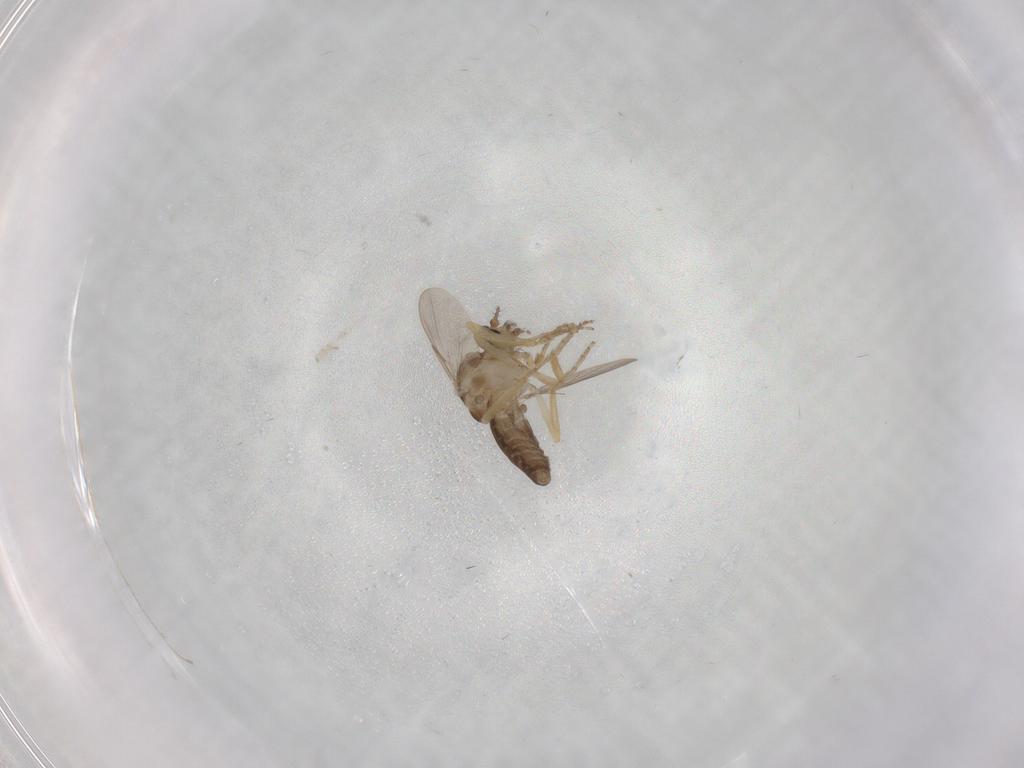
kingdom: Animalia
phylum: Arthropoda
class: Insecta
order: Diptera
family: Ceratopogonidae
